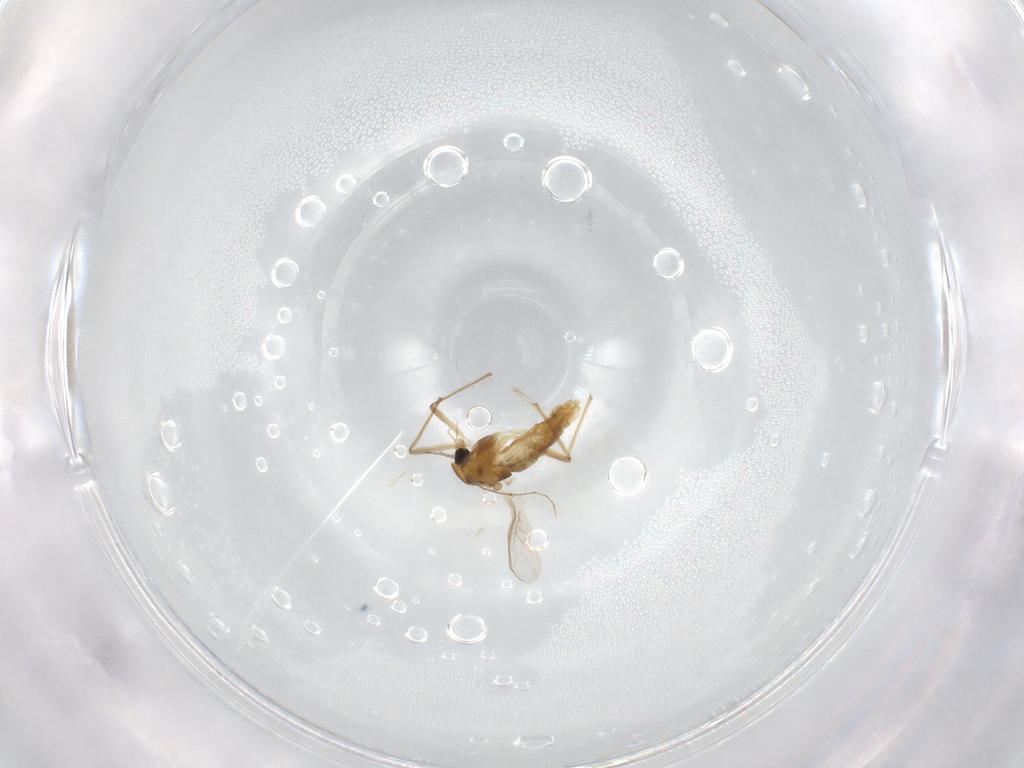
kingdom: Animalia
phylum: Arthropoda
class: Insecta
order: Diptera
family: Chironomidae
